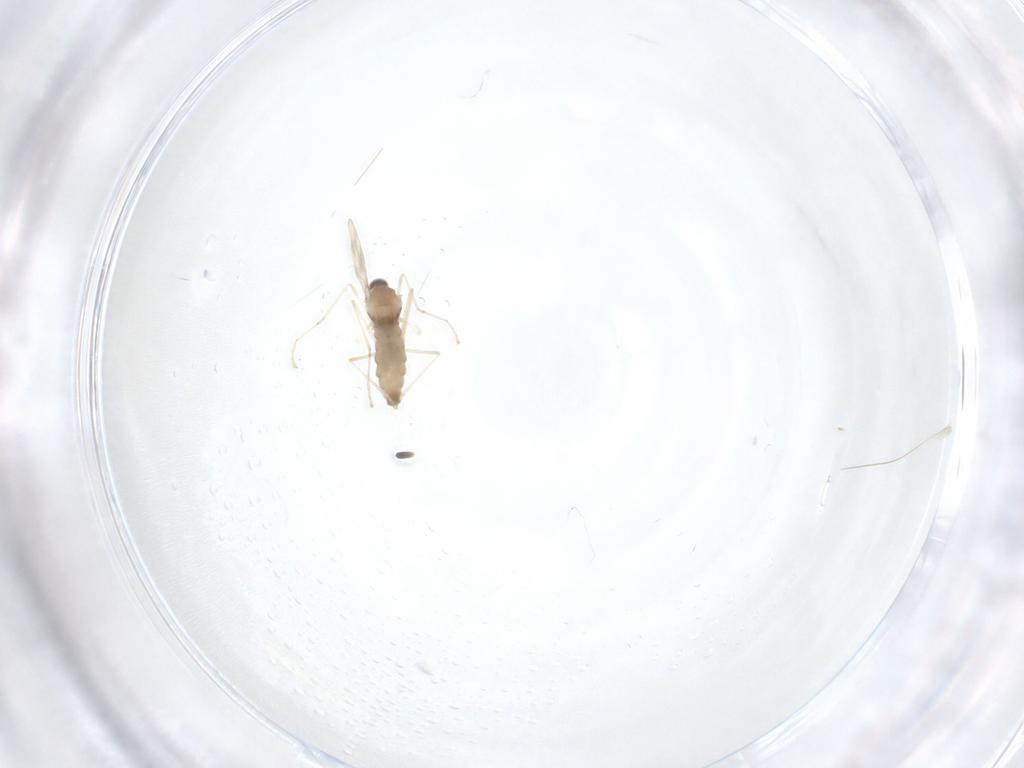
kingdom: Animalia
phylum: Arthropoda
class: Insecta
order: Diptera
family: Cecidomyiidae
